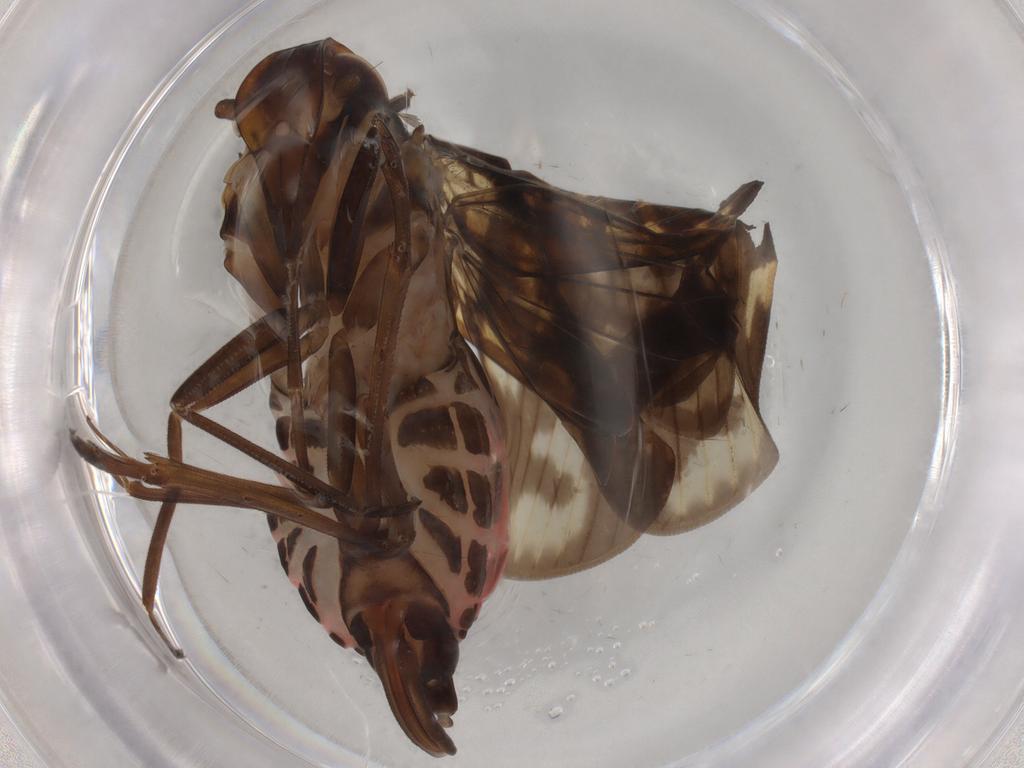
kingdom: Animalia
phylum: Arthropoda
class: Insecta
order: Hemiptera
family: Cixiidae
